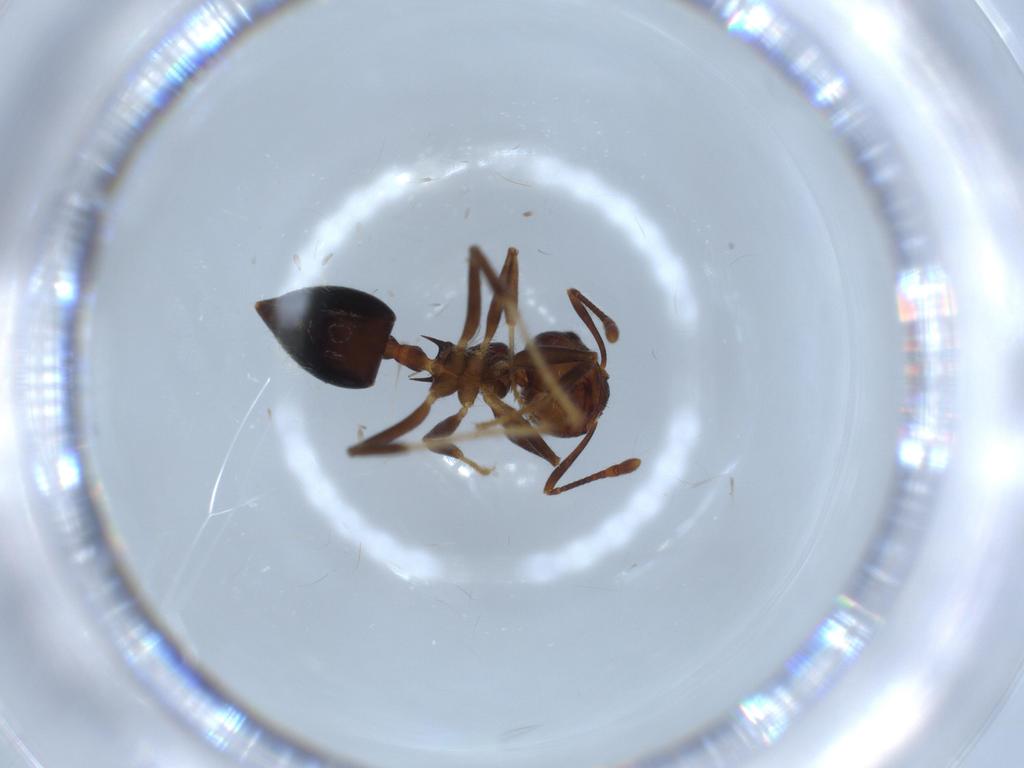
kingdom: Animalia
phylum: Arthropoda
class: Insecta
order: Hymenoptera
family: Formicidae
